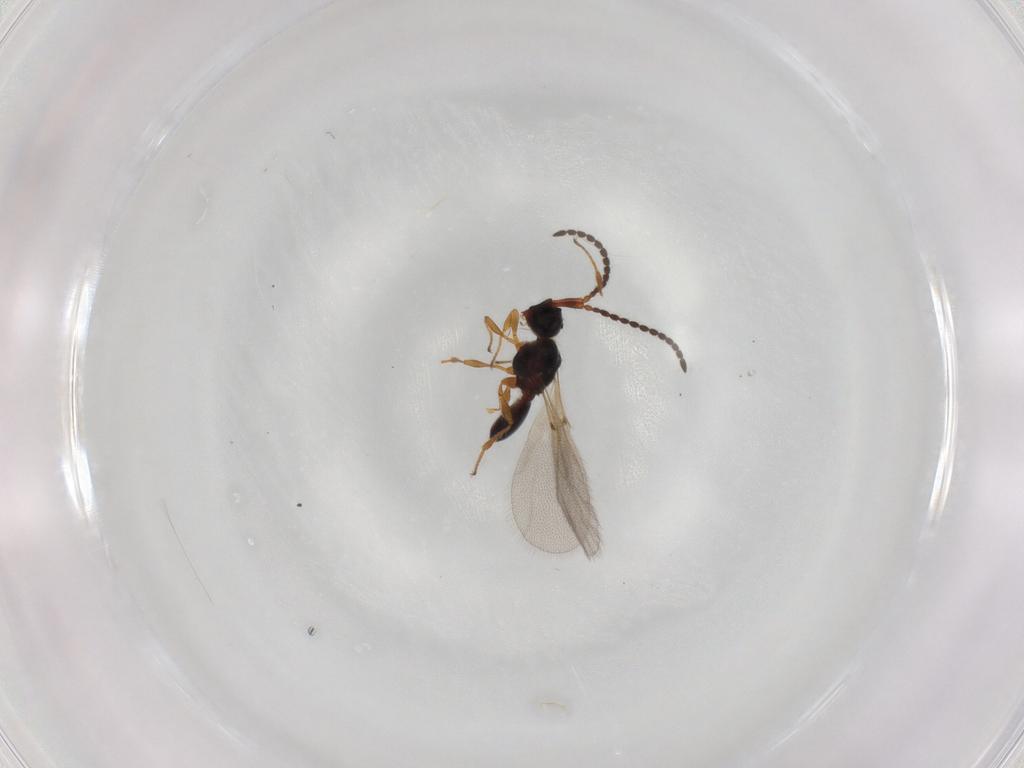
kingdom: Animalia
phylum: Arthropoda
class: Insecta
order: Hymenoptera
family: Diapriidae
